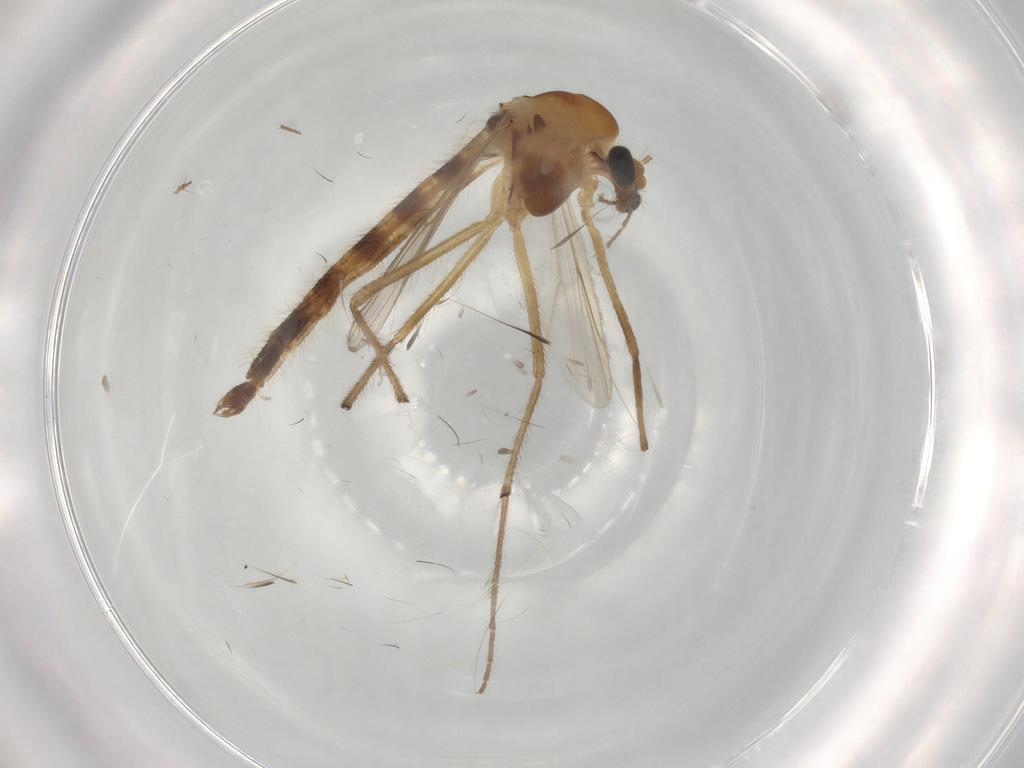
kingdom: Animalia
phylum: Arthropoda
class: Insecta
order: Diptera
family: Chironomidae
